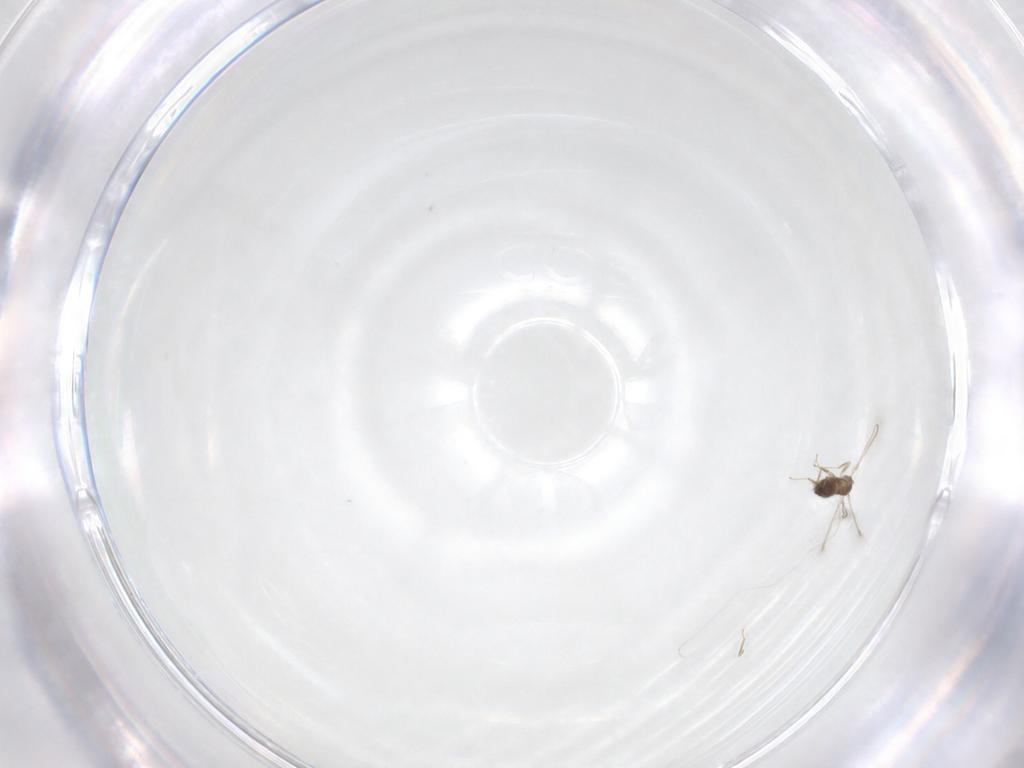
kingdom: Animalia
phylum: Arthropoda
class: Insecta
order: Hymenoptera
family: Mymaridae
